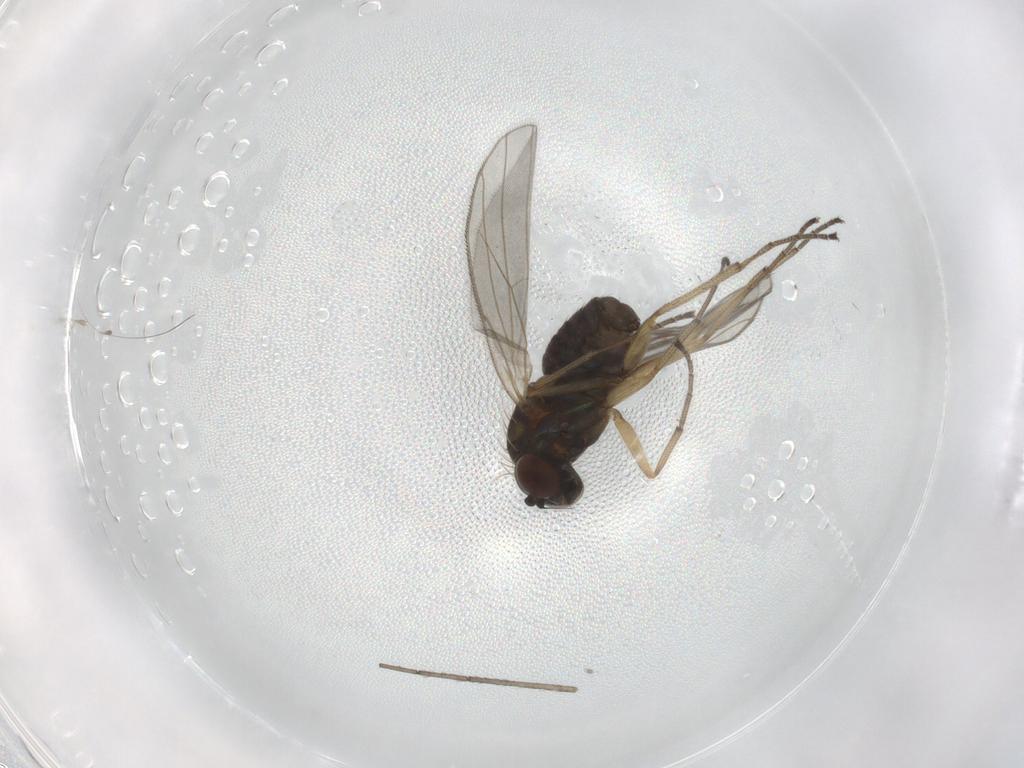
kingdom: Animalia
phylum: Arthropoda
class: Insecta
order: Diptera
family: Dolichopodidae
